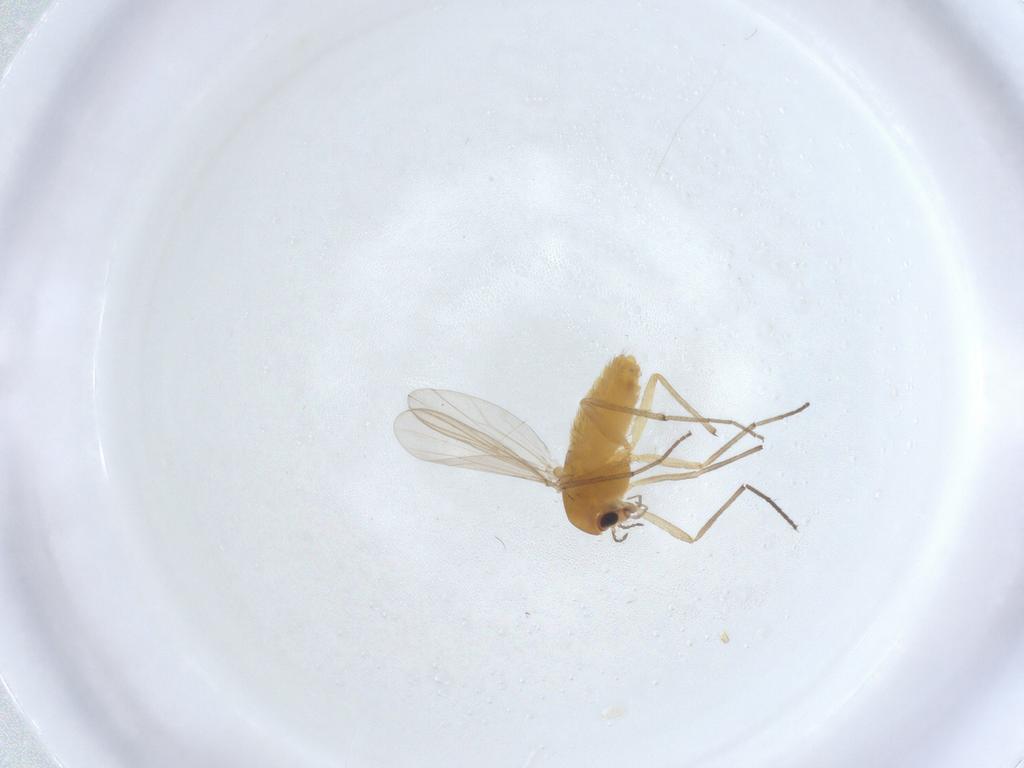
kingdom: Animalia
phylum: Arthropoda
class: Insecta
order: Diptera
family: Chironomidae
